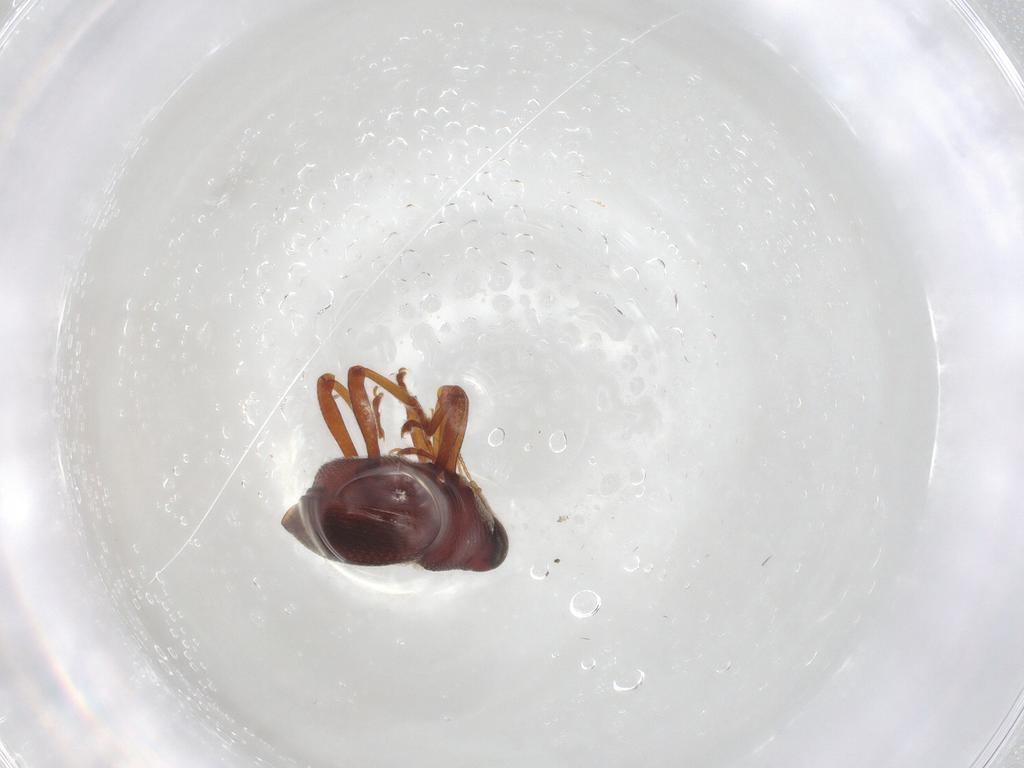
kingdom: Animalia
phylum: Arthropoda
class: Insecta
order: Coleoptera
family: Curculionidae
